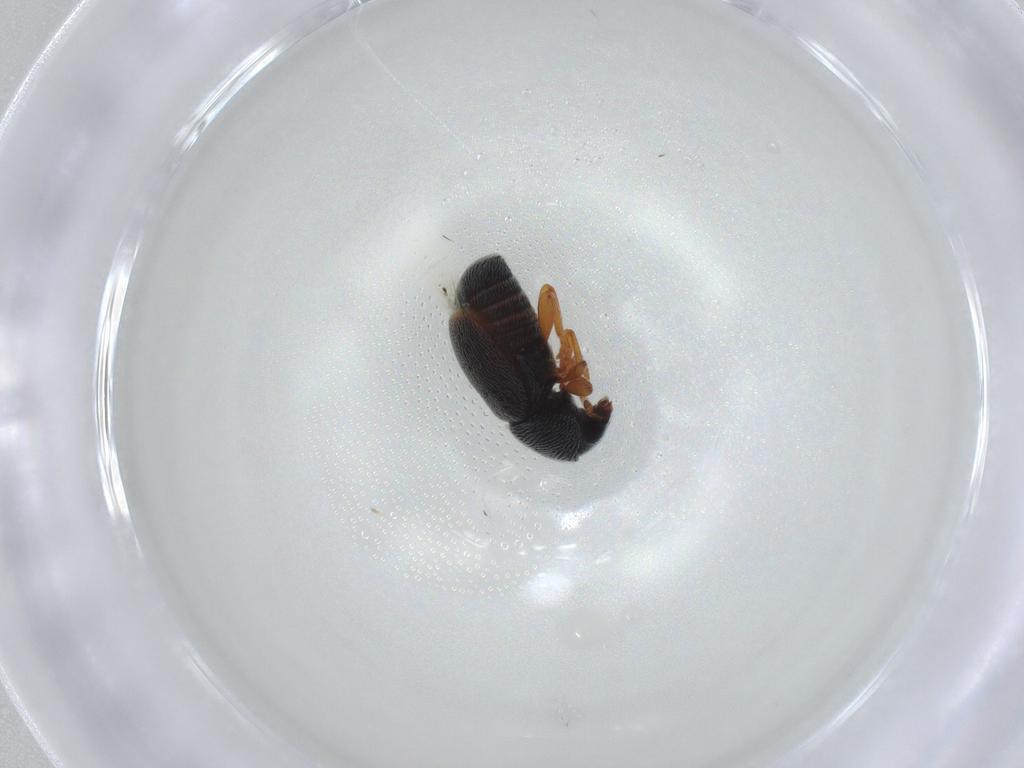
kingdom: Animalia
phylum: Arthropoda
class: Insecta
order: Coleoptera
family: Anthribidae
